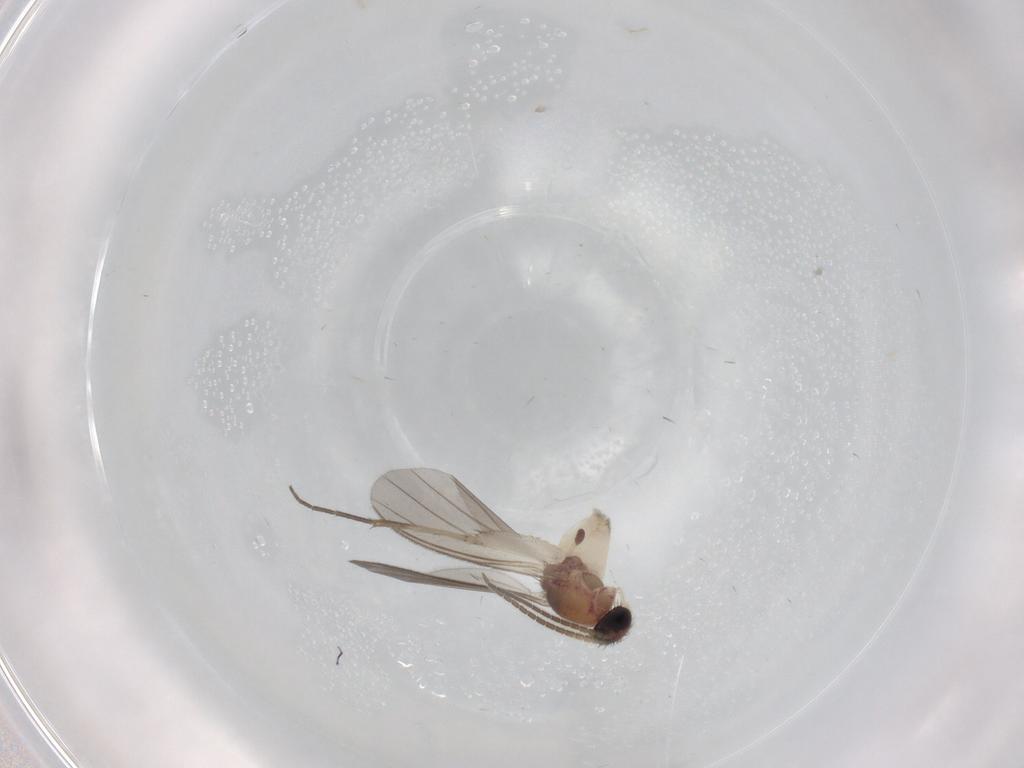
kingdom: Animalia
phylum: Arthropoda
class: Insecta
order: Diptera
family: Mycetophilidae
